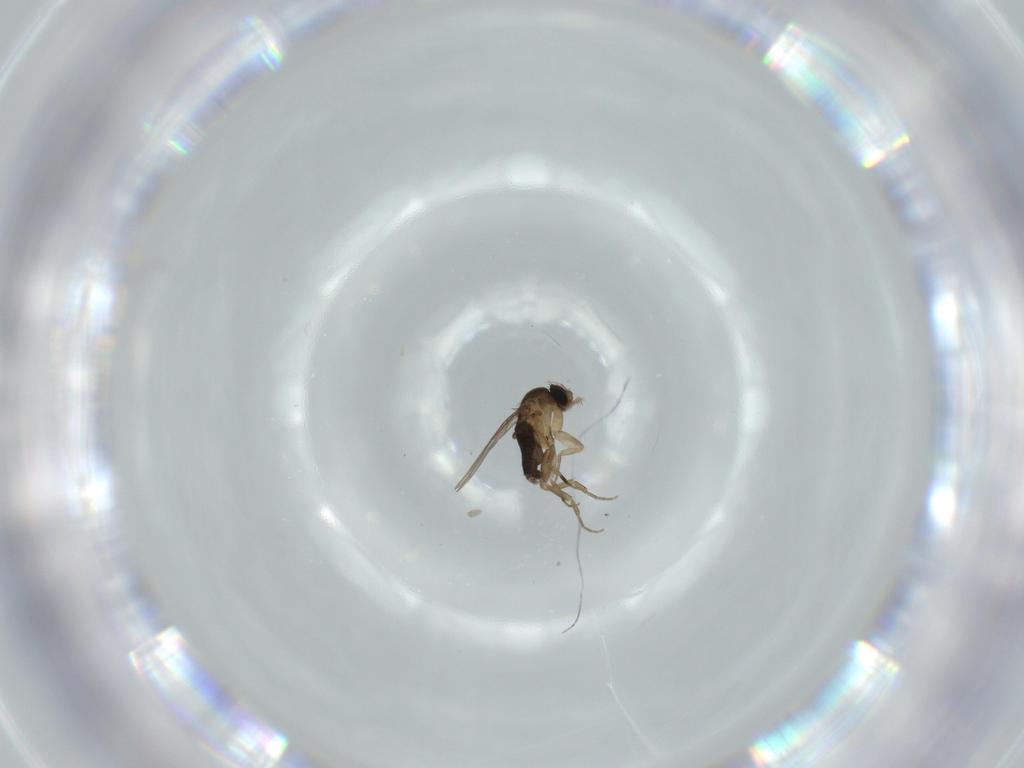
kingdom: Animalia
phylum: Arthropoda
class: Insecta
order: Diptera
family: Phoridae
